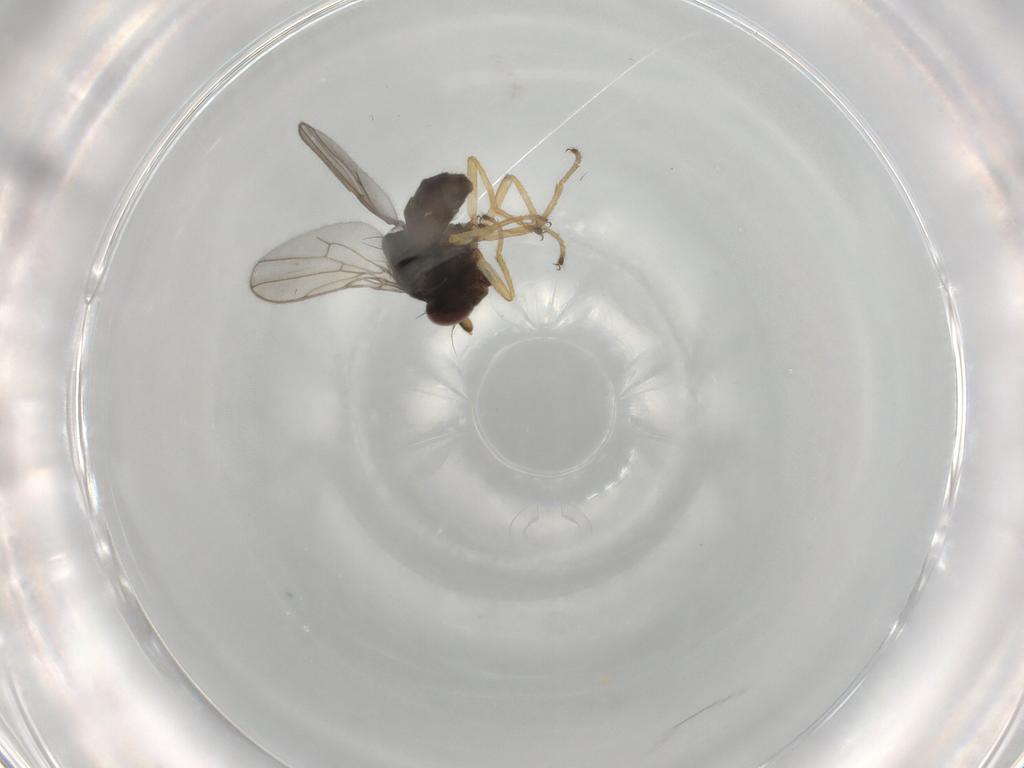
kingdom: Animalia
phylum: Arthropoda
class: Insecta
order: Diptera
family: Ephydridae
